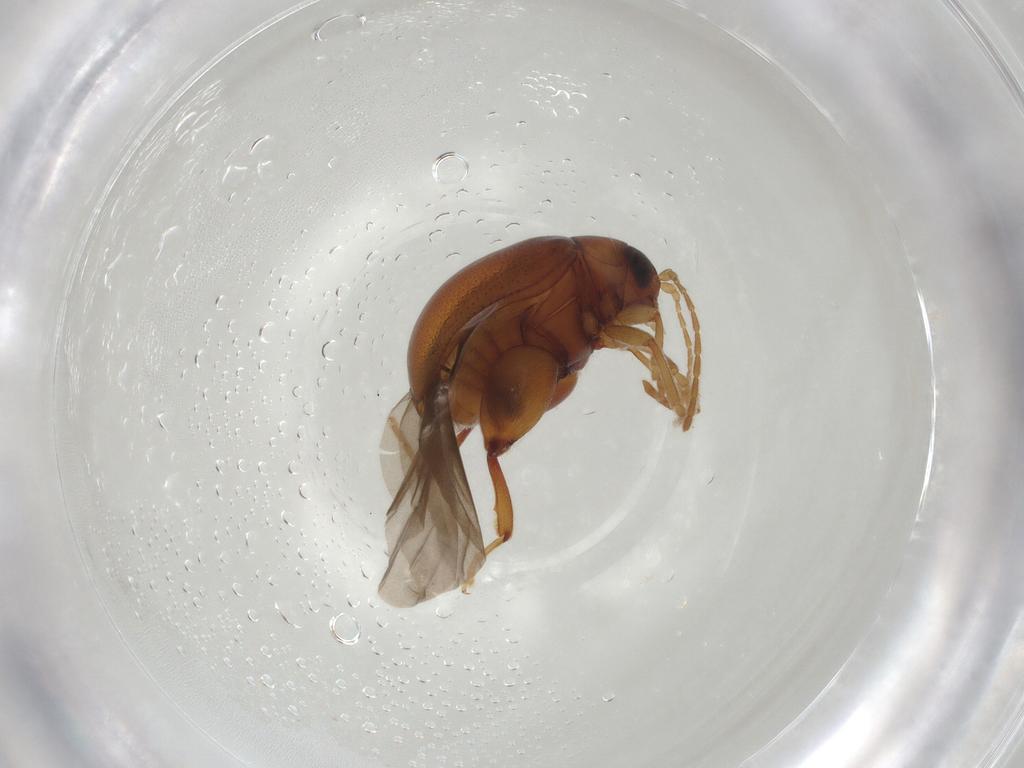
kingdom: Animalia
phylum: Arthropoda
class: Insecta
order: Coleoptera
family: Chrysomelidae
